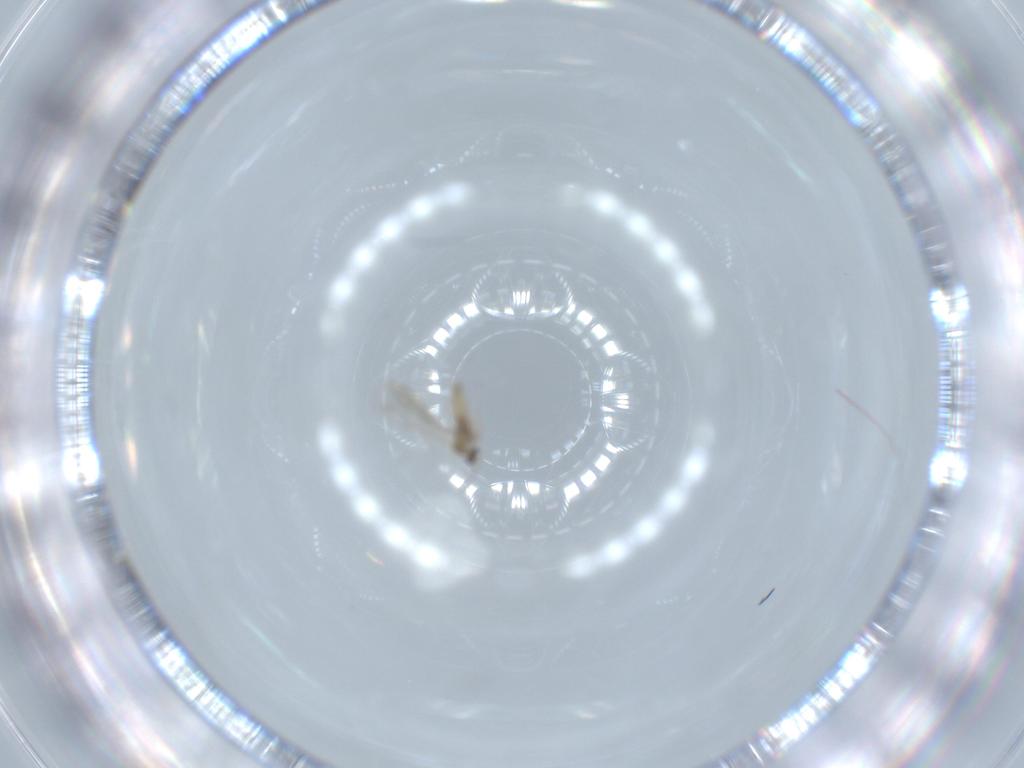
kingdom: Animalia
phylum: Arthropoda
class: Insecta
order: Diptera
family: Cecidomyiidae
